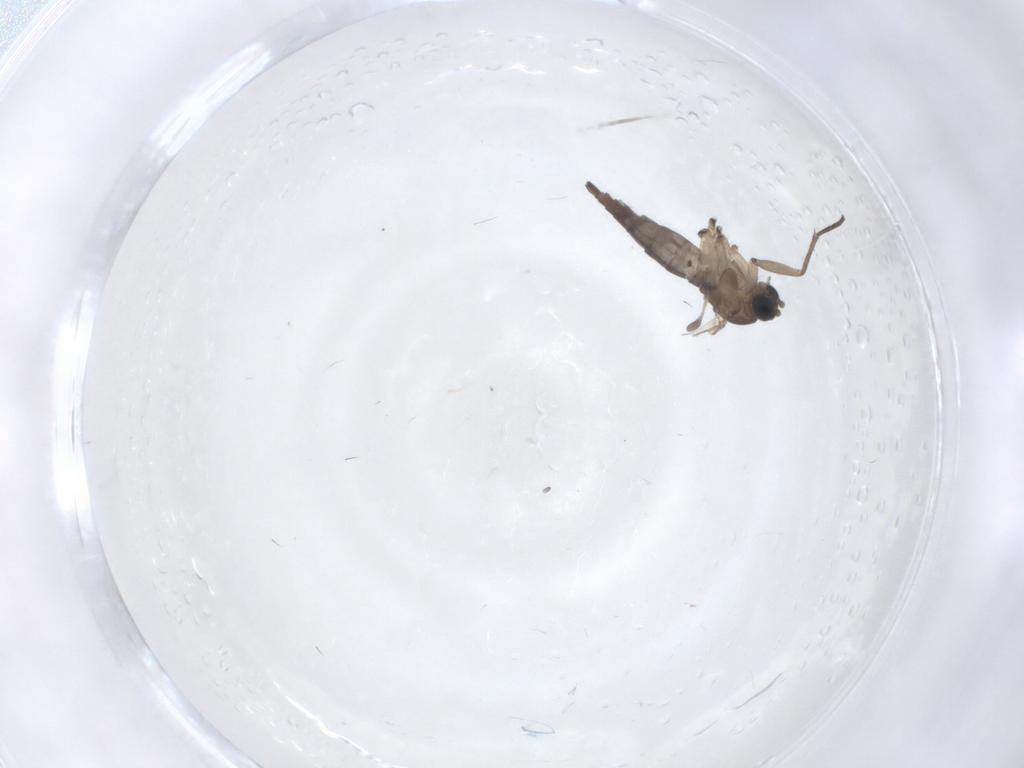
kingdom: Animalia
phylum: Arthropoda
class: Insecta
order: Diptera
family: Sciaridae
